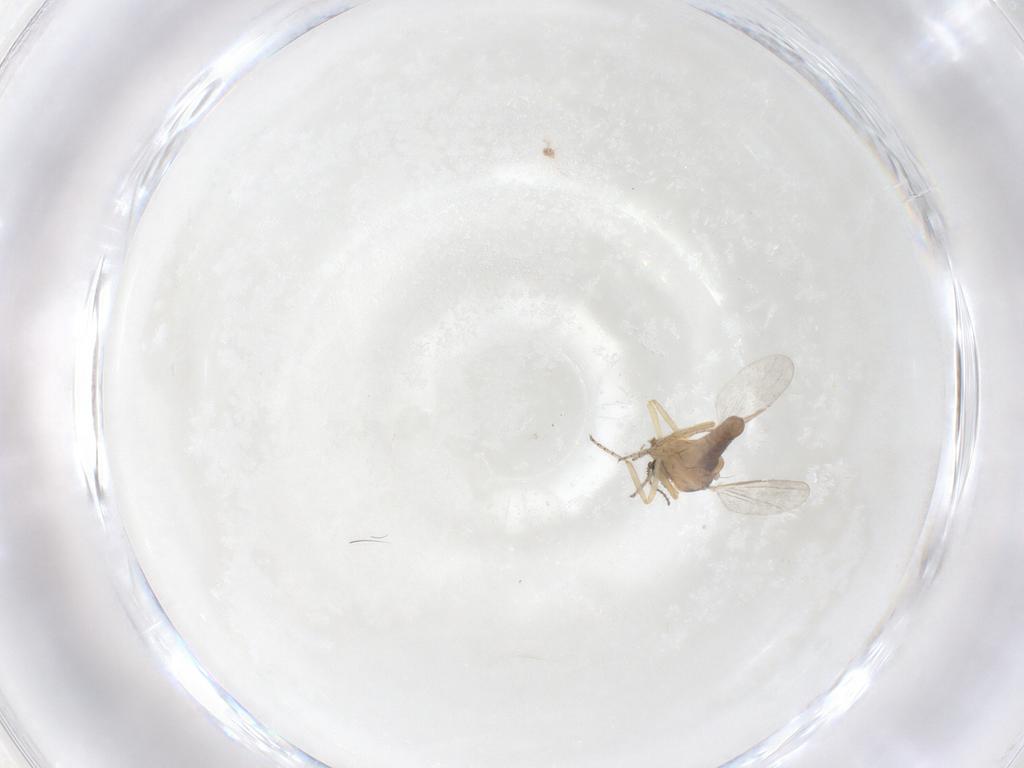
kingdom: Animalia
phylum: Arthropoda
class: Insecta
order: Diptera
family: Ceratopogonidae
